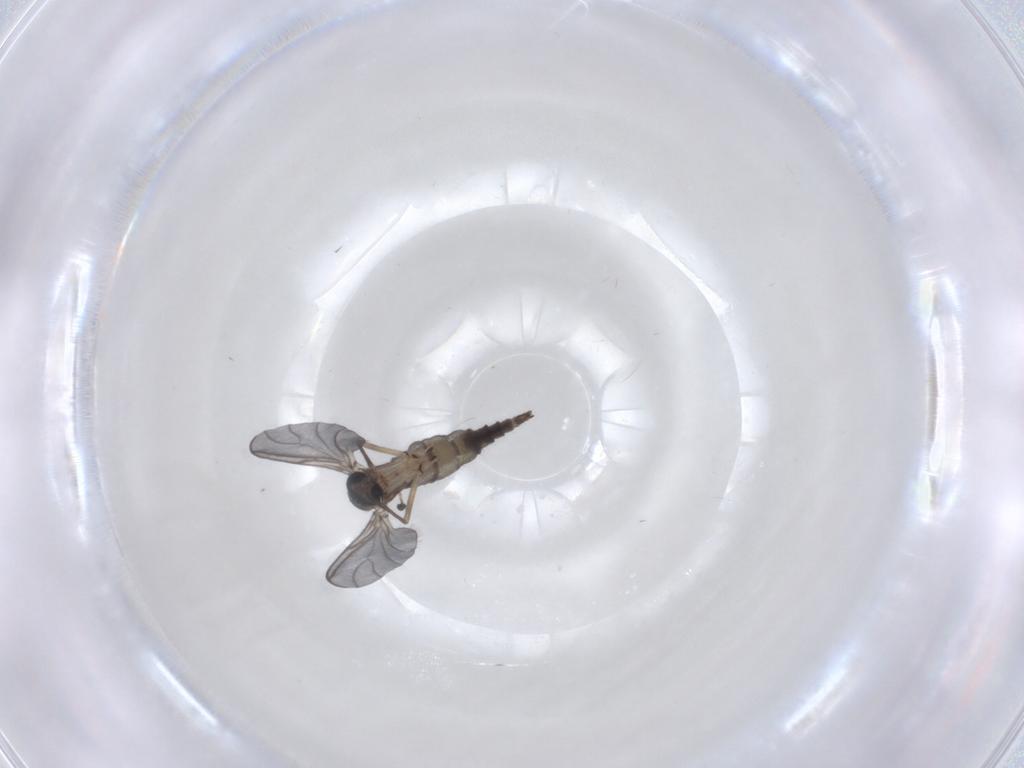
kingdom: Animalia
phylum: Arthropoda
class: Insecta
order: Diptera
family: Sciaridae
